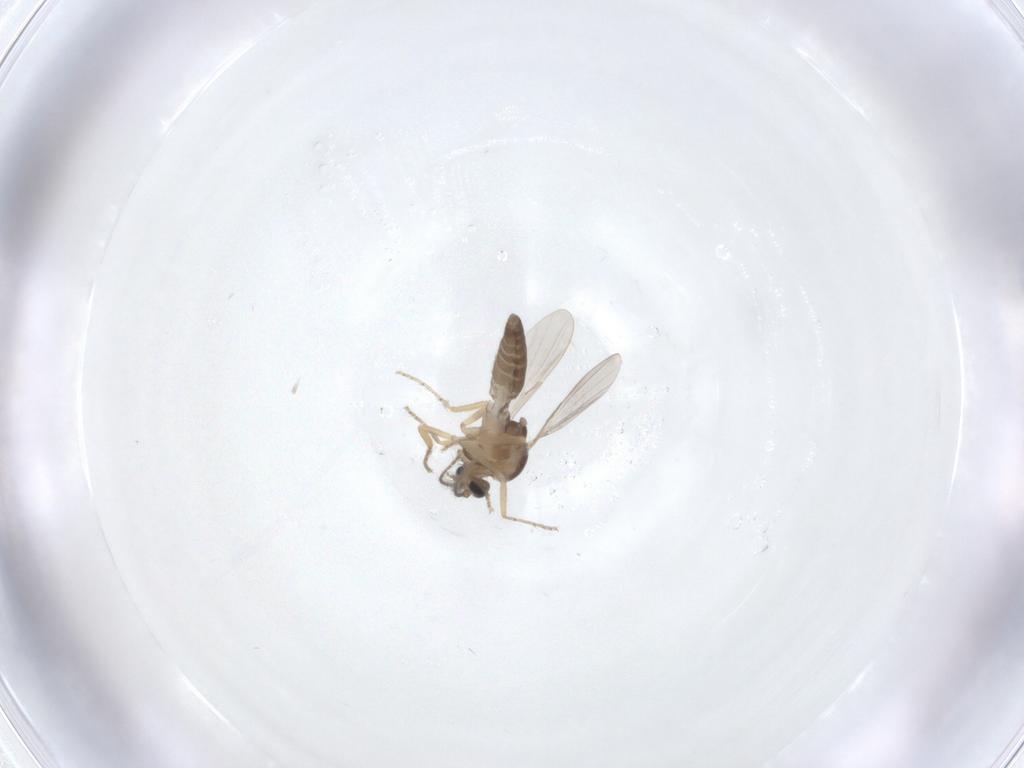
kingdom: Animalia
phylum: Arthropoda
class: Insecta
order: Diptera
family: Ceratopogonidae
